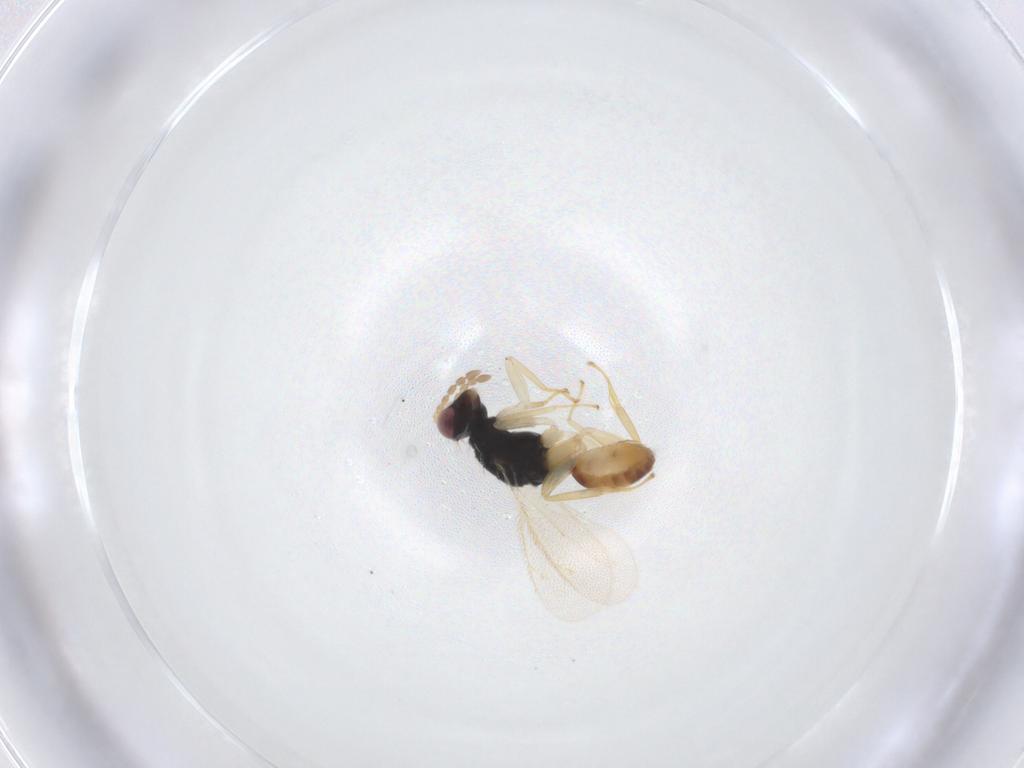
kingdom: Animalia
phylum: Arthropoda
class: Insecta
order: Hymenoptera
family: Eulophidae
